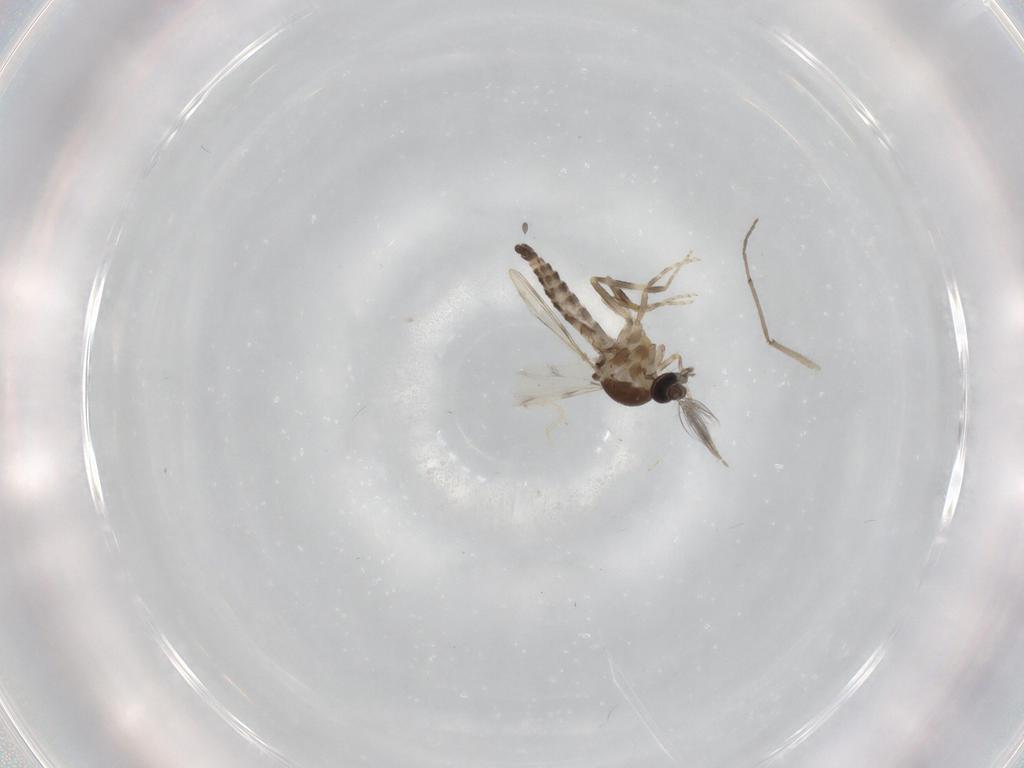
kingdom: Animalia
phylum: Arthropoda
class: Insecta
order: Diptera
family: Ceratopogonidae
